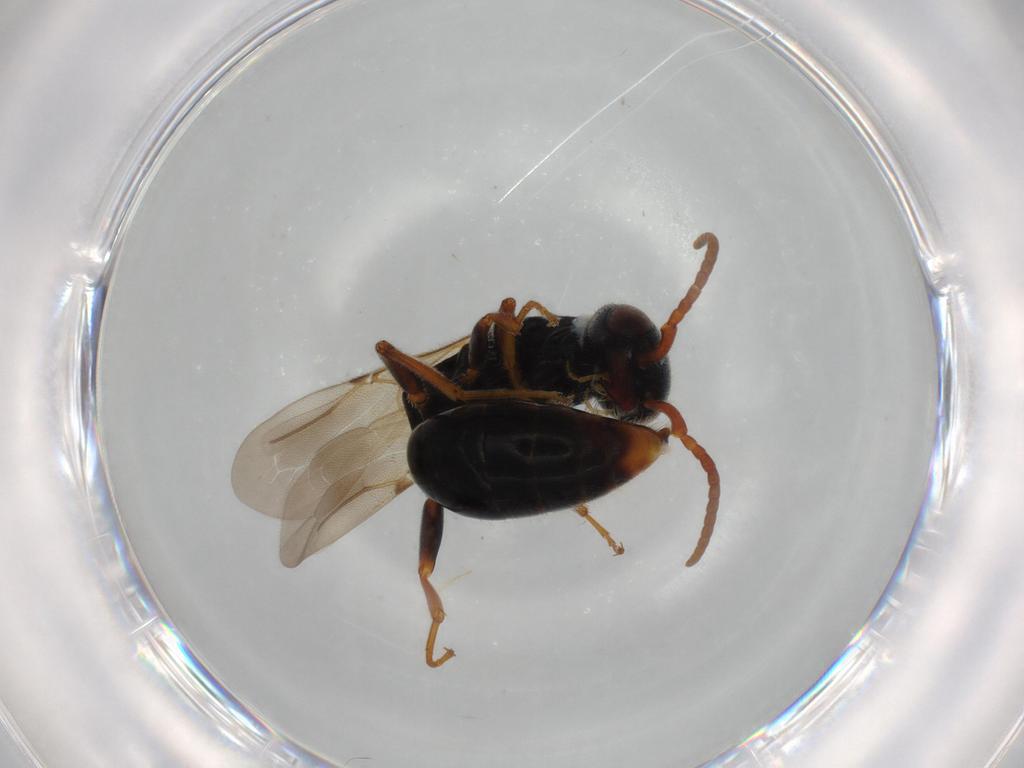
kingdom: Animalia
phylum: Arthropoda
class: Insecta
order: Hymenoptera
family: Bethylidae
